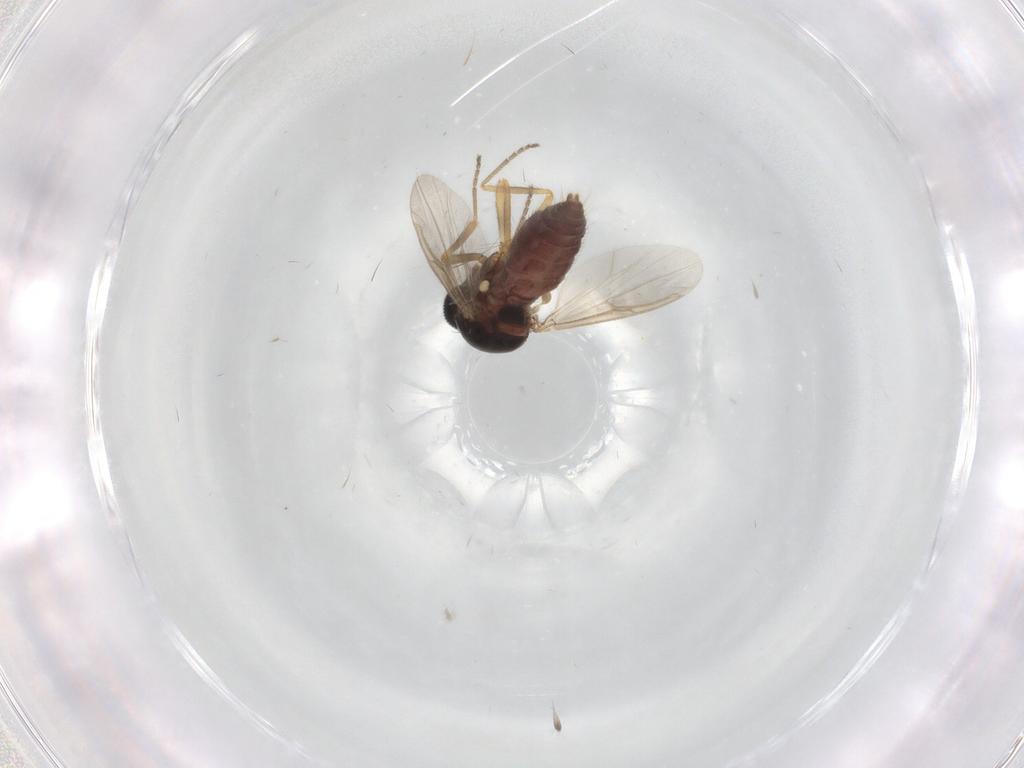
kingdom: Animalia
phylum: Arthropoda
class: Insecta
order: Diptera
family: Psychodidae
